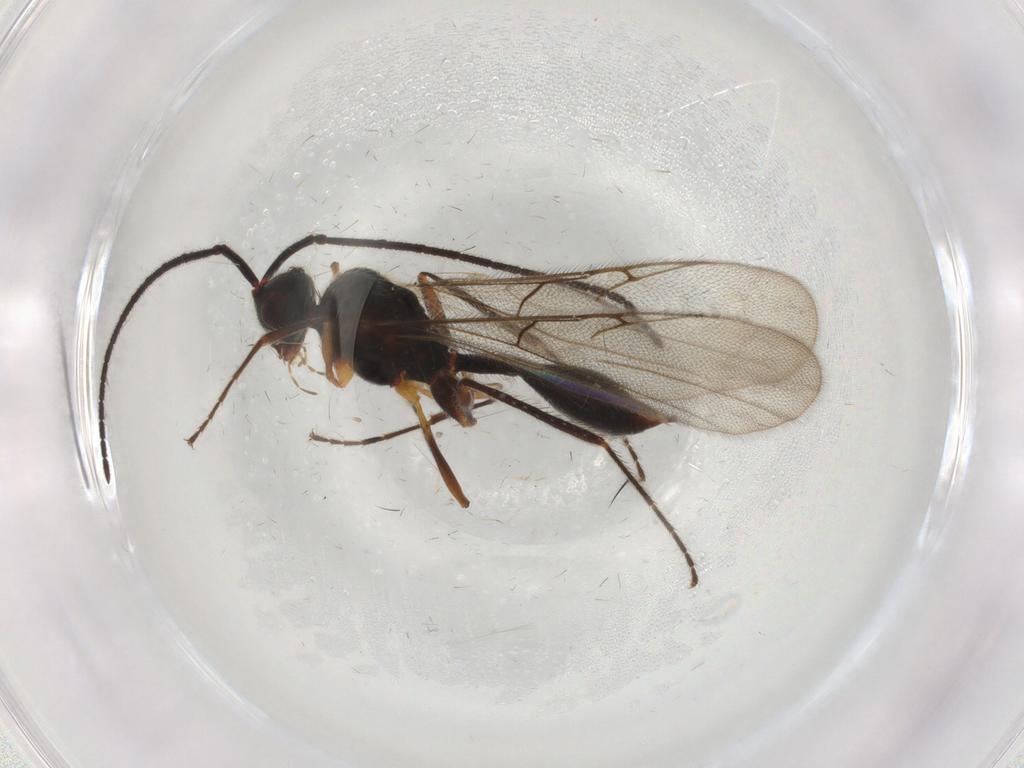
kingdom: Animalia
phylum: Arthropoda
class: Insecta
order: Hymenoptera
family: Diapriidae
